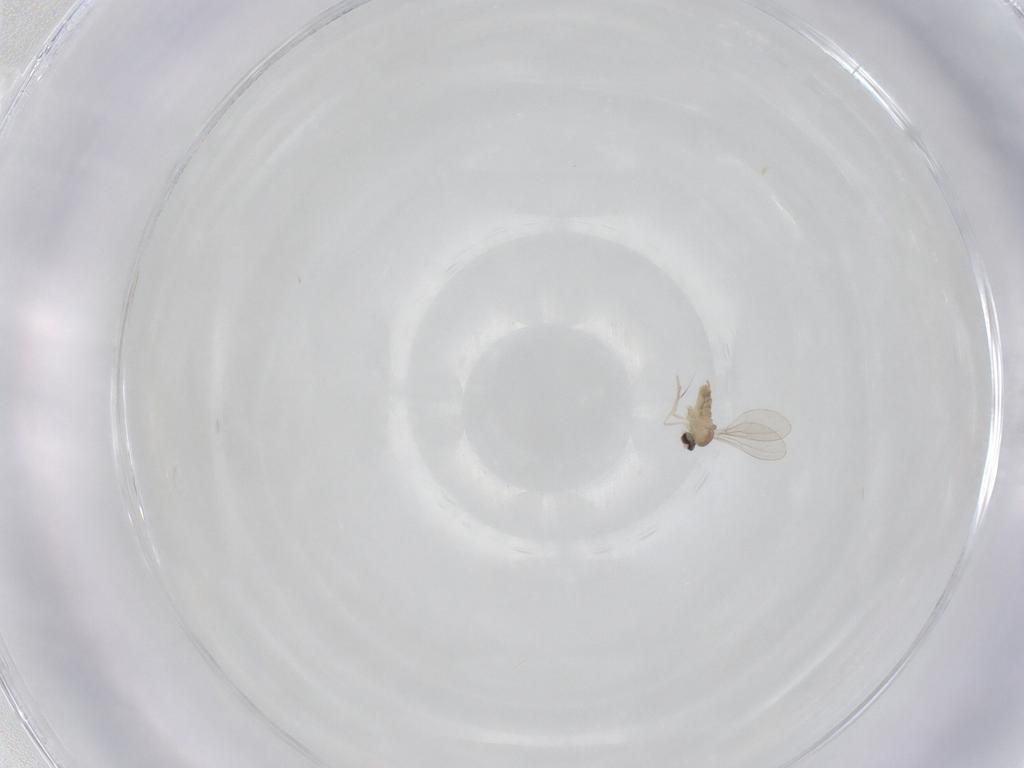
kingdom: Animalia
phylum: Arthropoda
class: Insecta
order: Diptera
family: Cecidomyiidae
